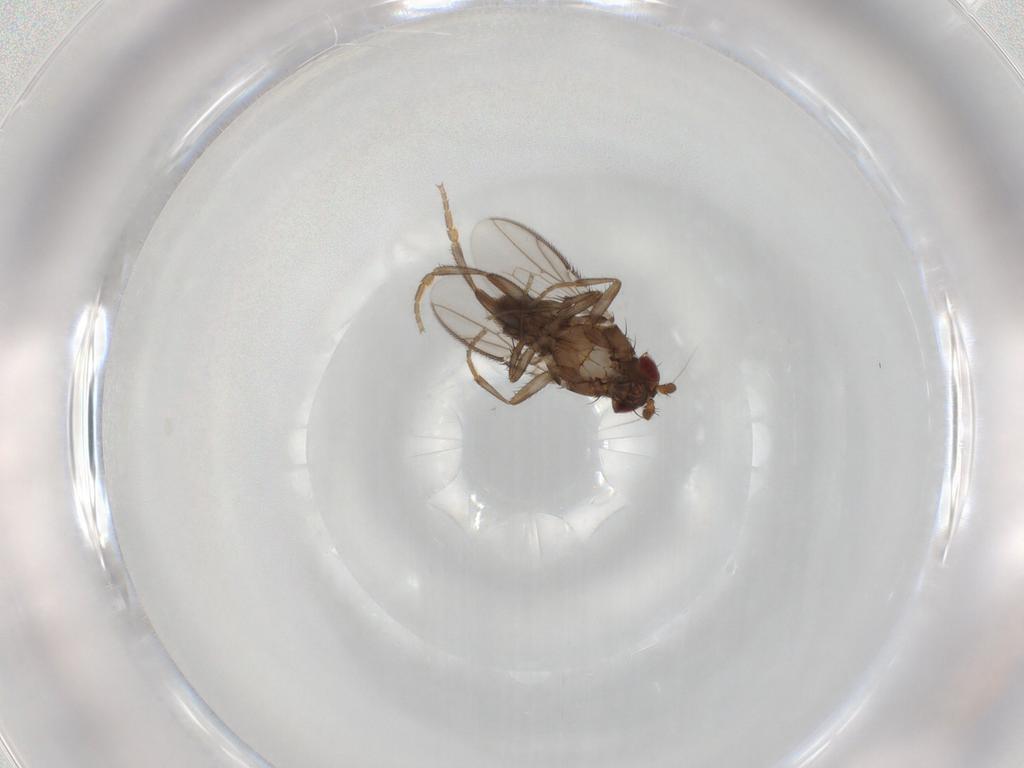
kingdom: Animalia
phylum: Arthropoda
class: Insecta
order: Diptera
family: Sphaeroceridae
